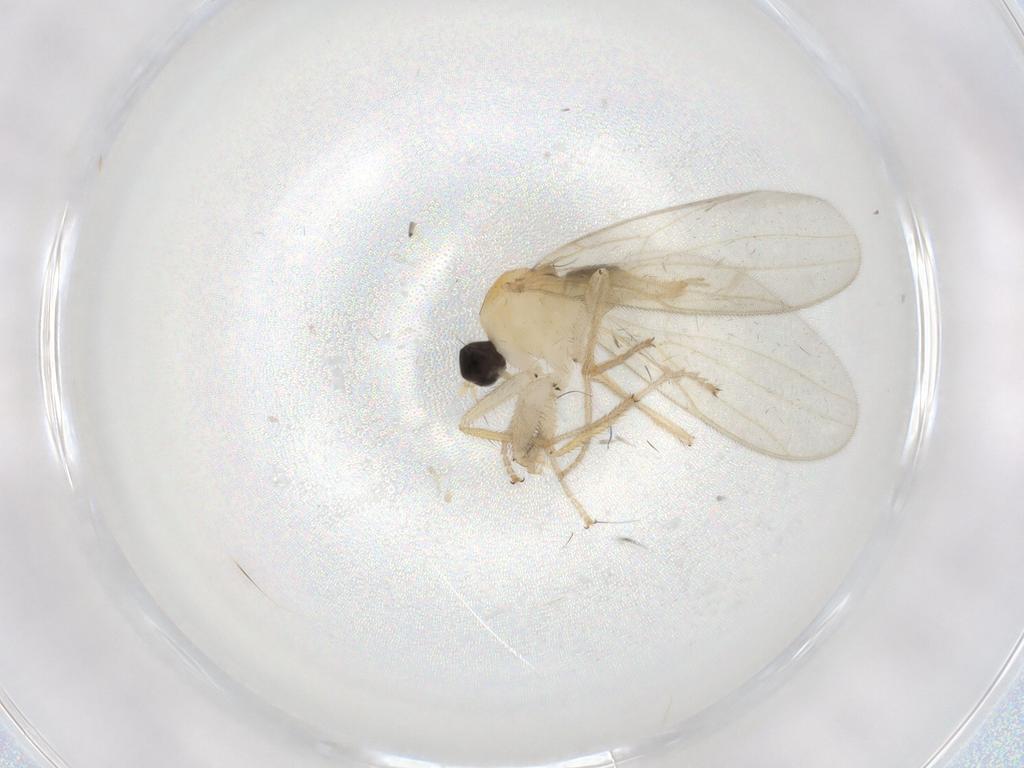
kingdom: Animalia
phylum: Arthropoda
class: Insecta
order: Diptera
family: Hybotidae
